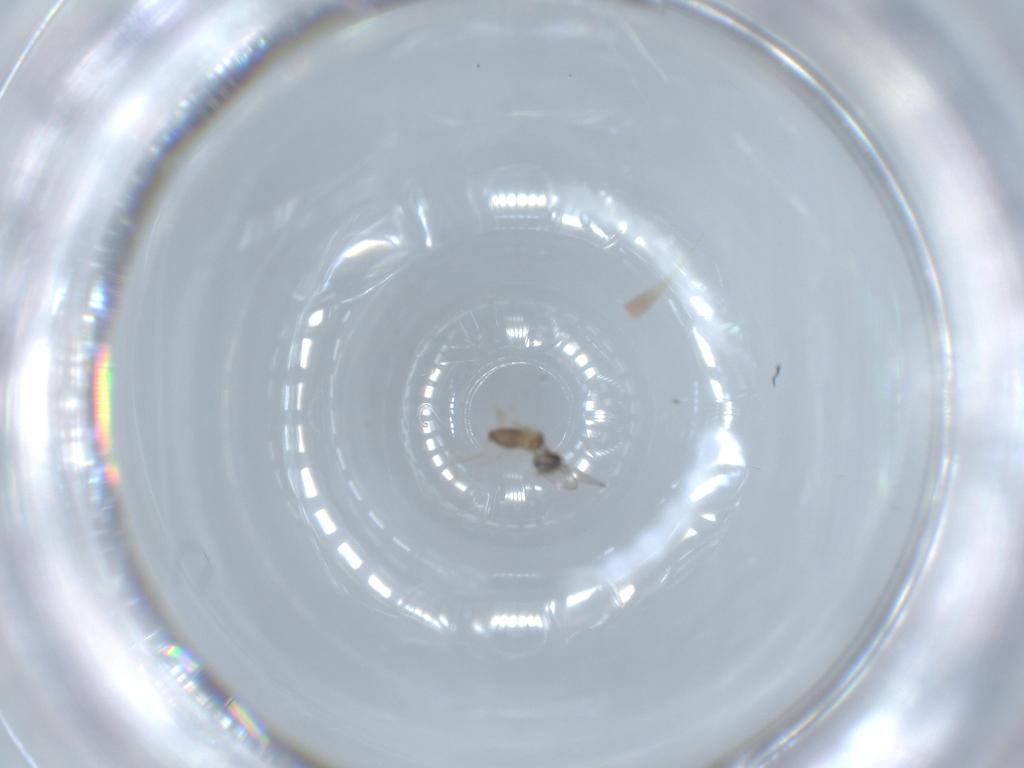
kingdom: Animalia
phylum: Arthropoda
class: Insecta
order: Diptera
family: Cecidomyiidae
